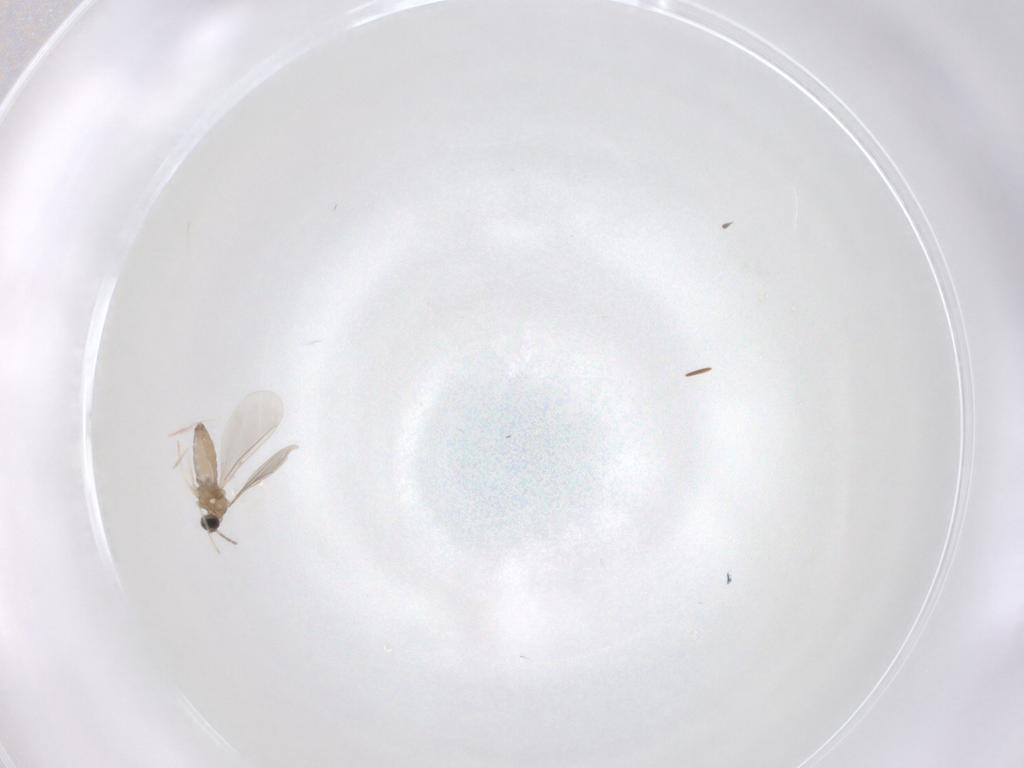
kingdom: Animalia
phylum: Arthropoda
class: Insecta
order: Diptera
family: Cecidomyiidae
